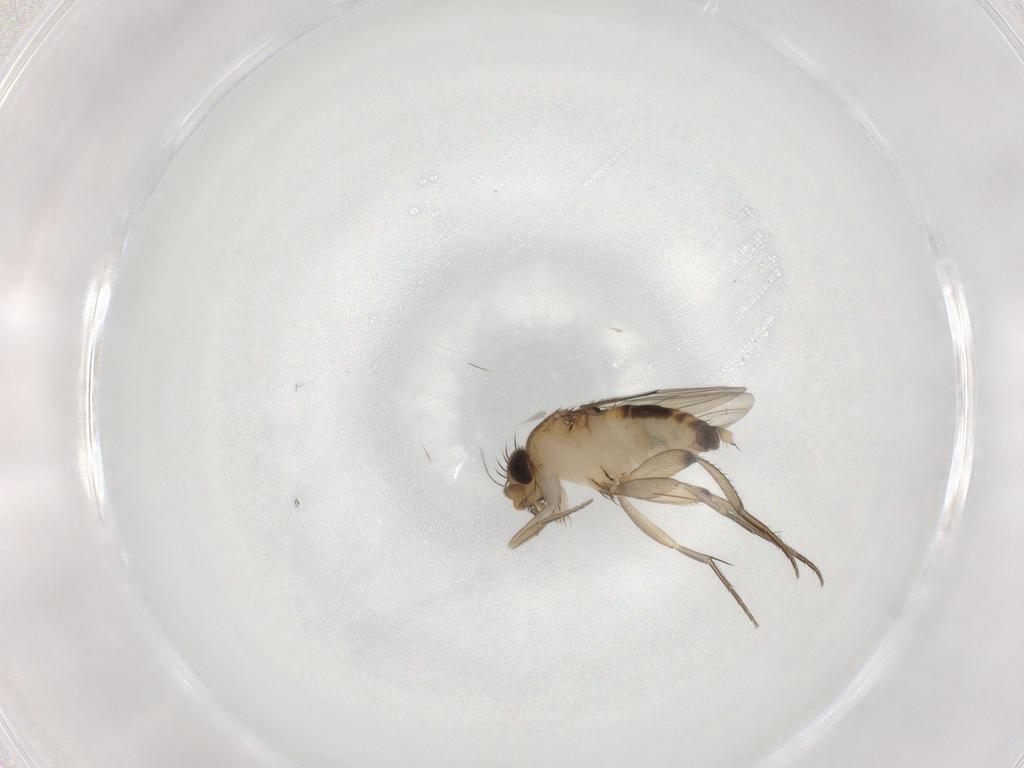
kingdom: Animalia
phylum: Arthropoda
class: Insecta
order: Diptera
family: Phoridae
